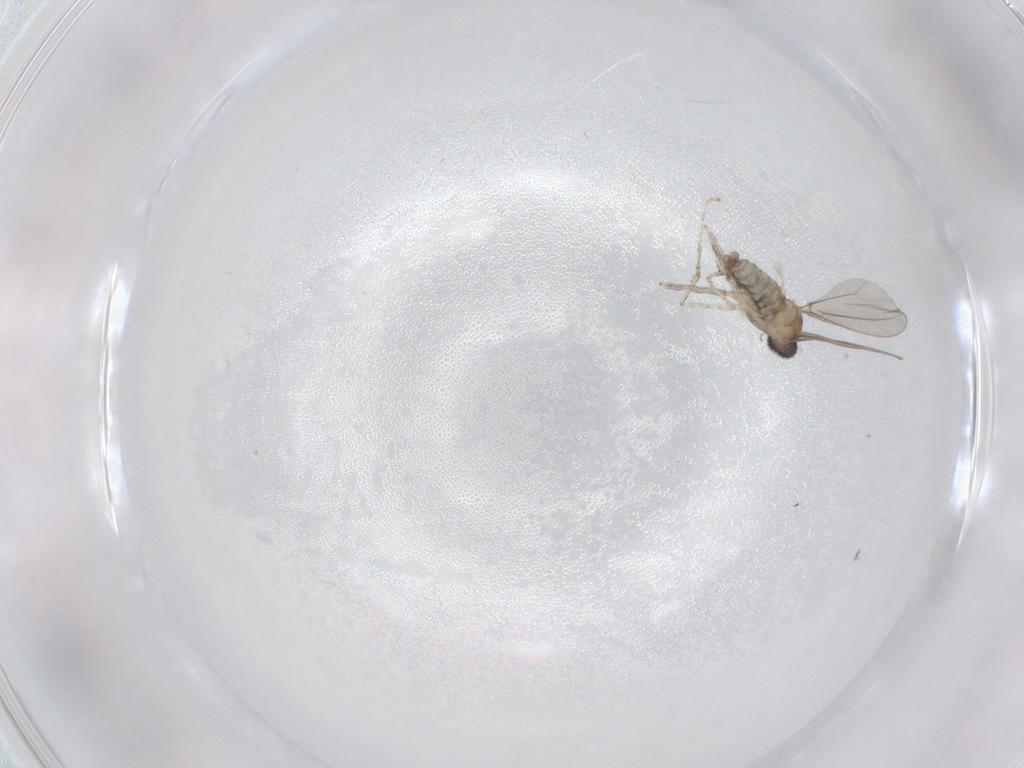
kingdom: Animalia
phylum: Arthropoda
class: Insecta
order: Diptera
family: Cecidomyiidae
